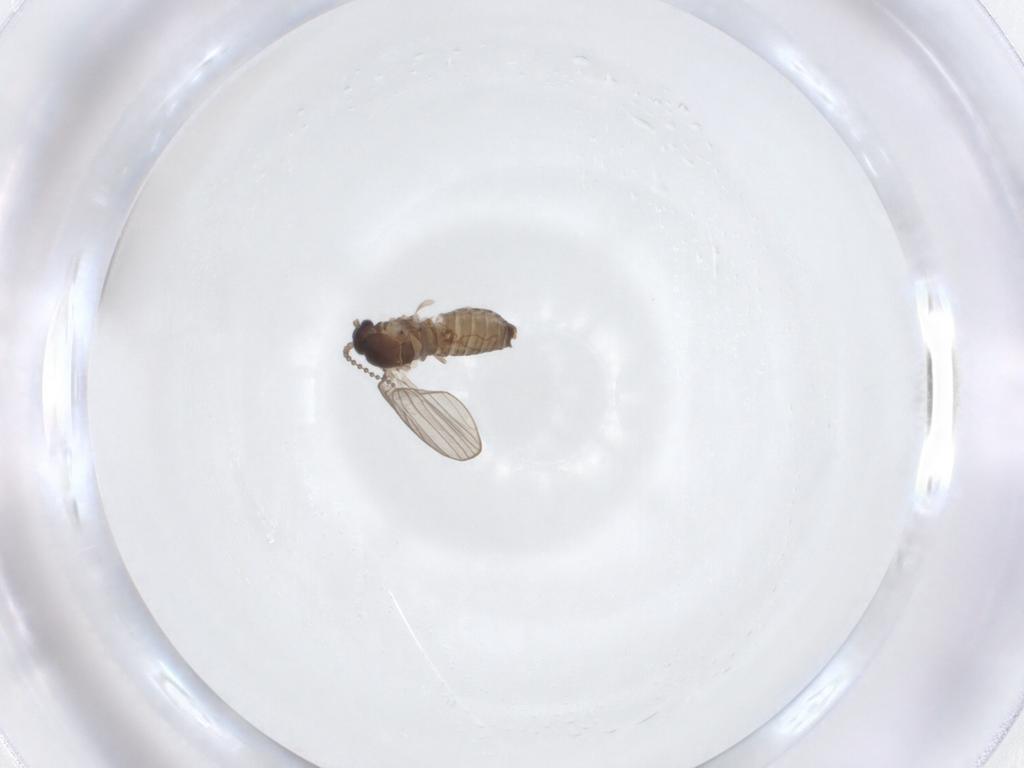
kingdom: Animalia
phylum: Arthropoda
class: Insecta
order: Diptera
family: Psychodidae
